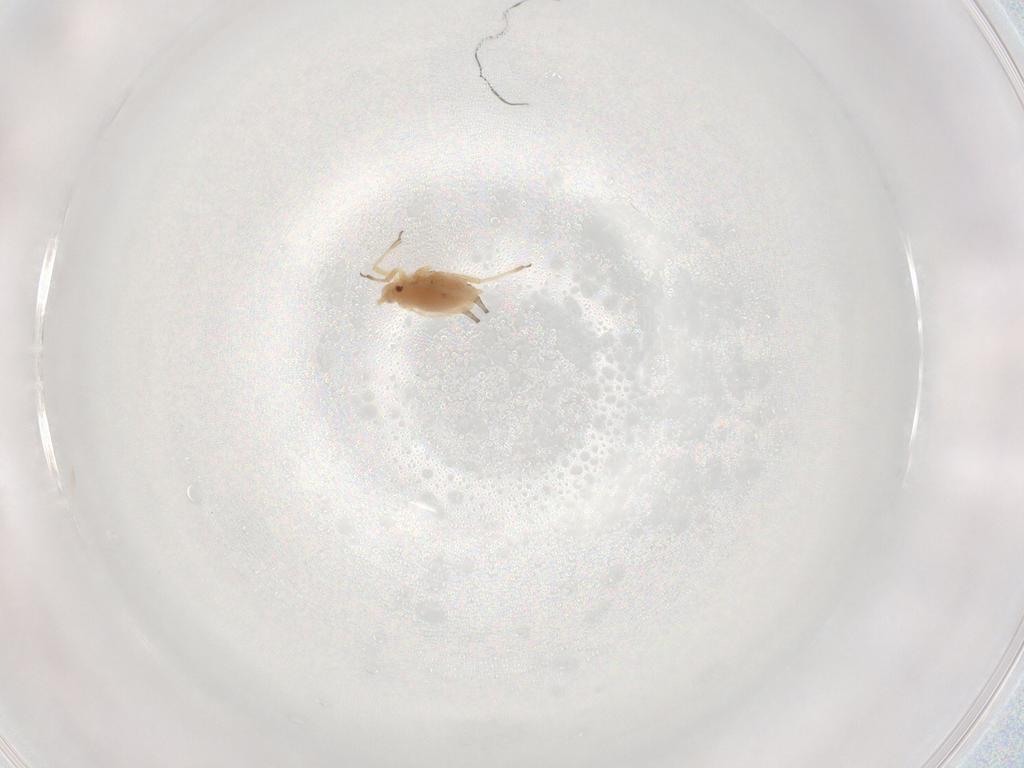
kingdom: Animalia
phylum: Arthropoda
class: Insecta
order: Hemiptera
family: Aphididae
